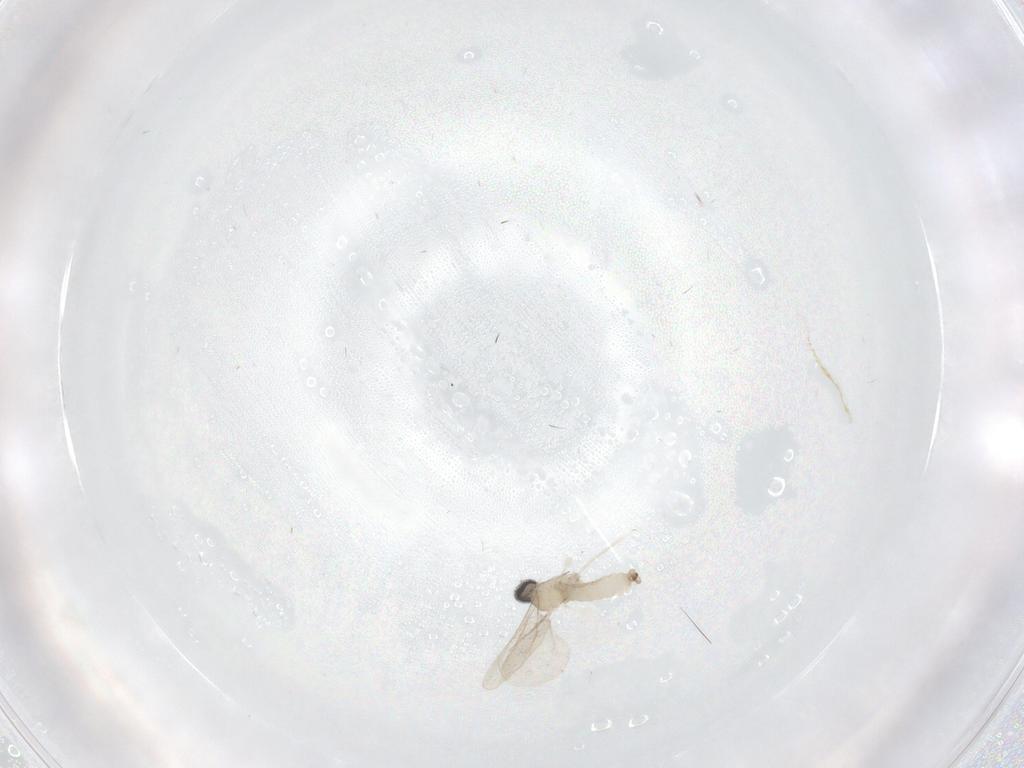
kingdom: Animalia
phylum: Arthropoda
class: Insecta
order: Diptera
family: Cecidomyiidae
